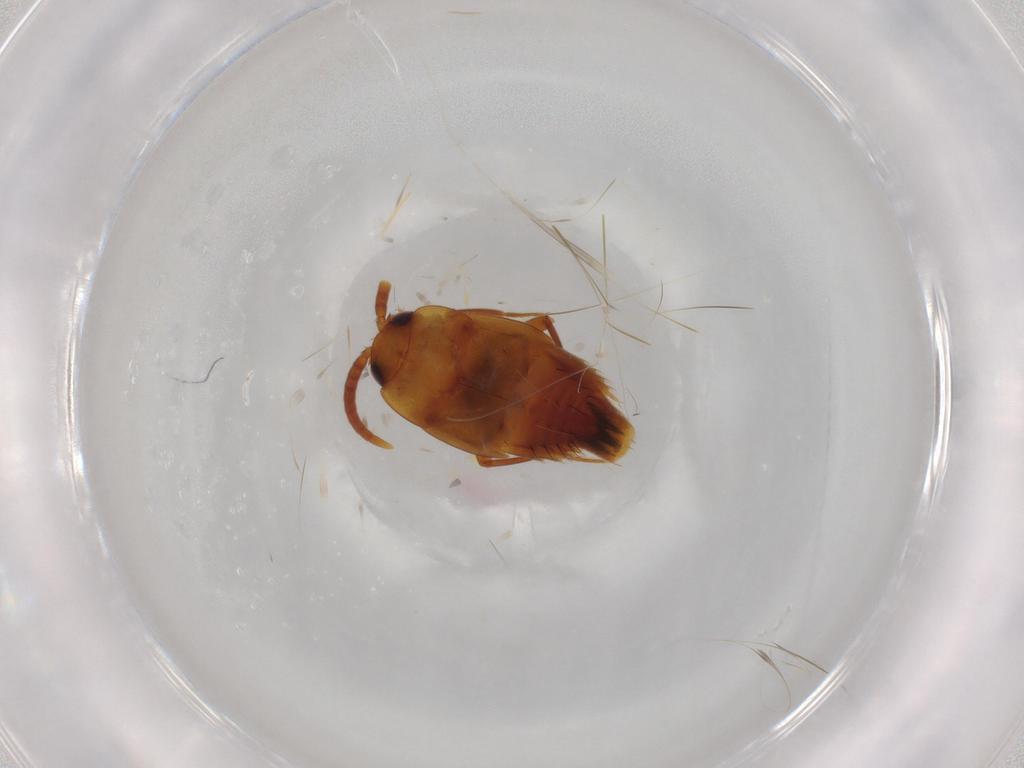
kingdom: Animalia
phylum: Arthropoda
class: Insecta
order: Coleoptera
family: Staphylinidae
